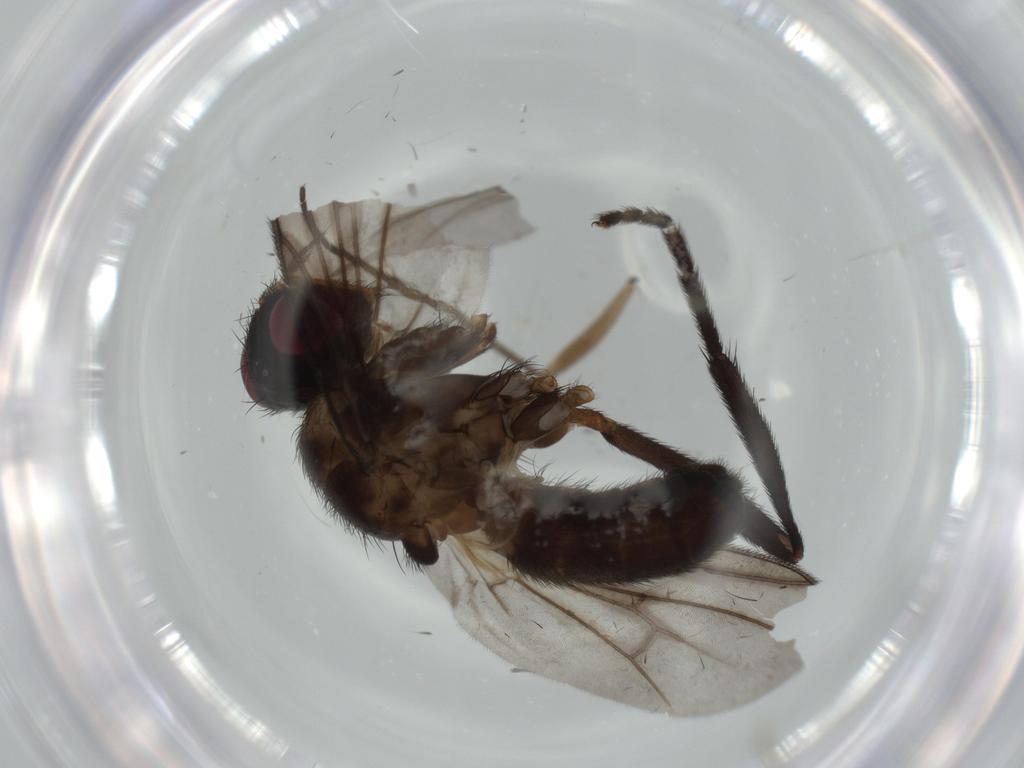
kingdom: Animalia
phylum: Arthropoda
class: Insecta
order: Diptera
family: Calliphoridae
